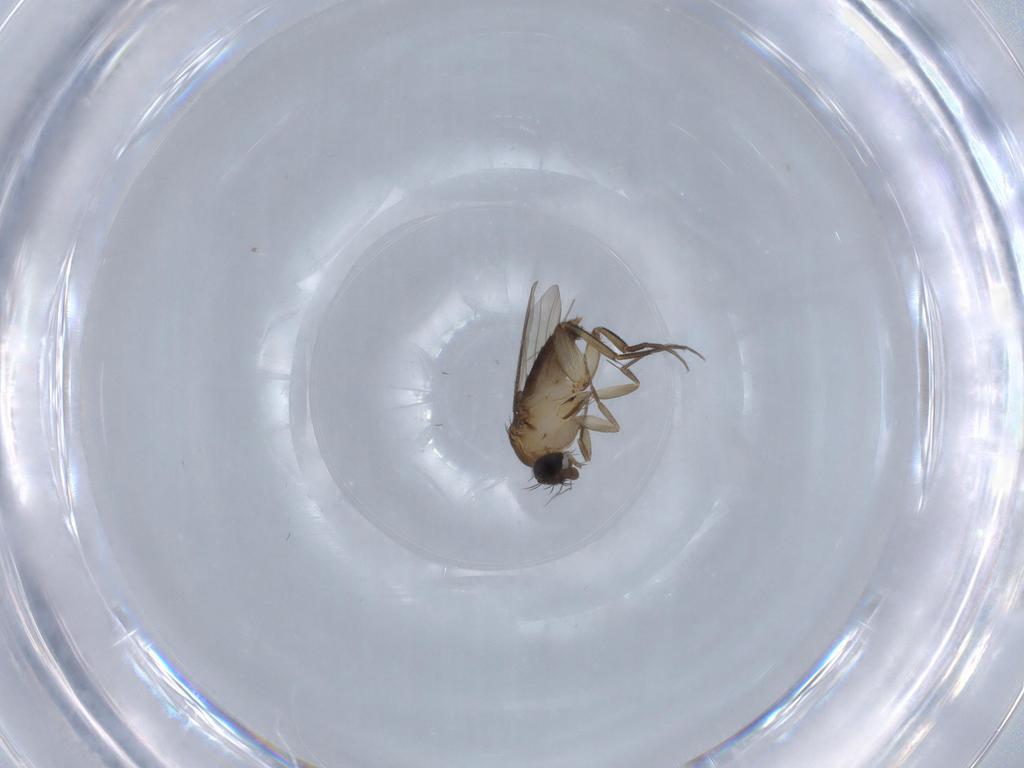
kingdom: Animalia
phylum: Arthropoda
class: Insecta
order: Diptera
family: Phoridae
